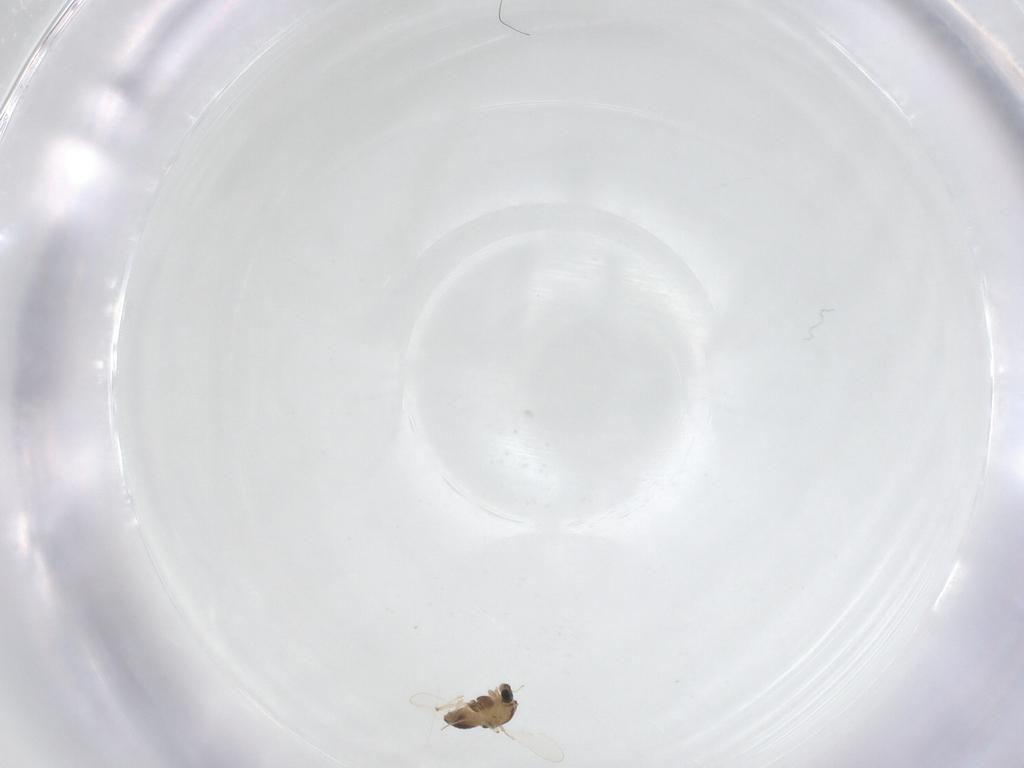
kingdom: Animalia
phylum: Arthropoda
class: Insecta
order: Diptera
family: Chironomidae
